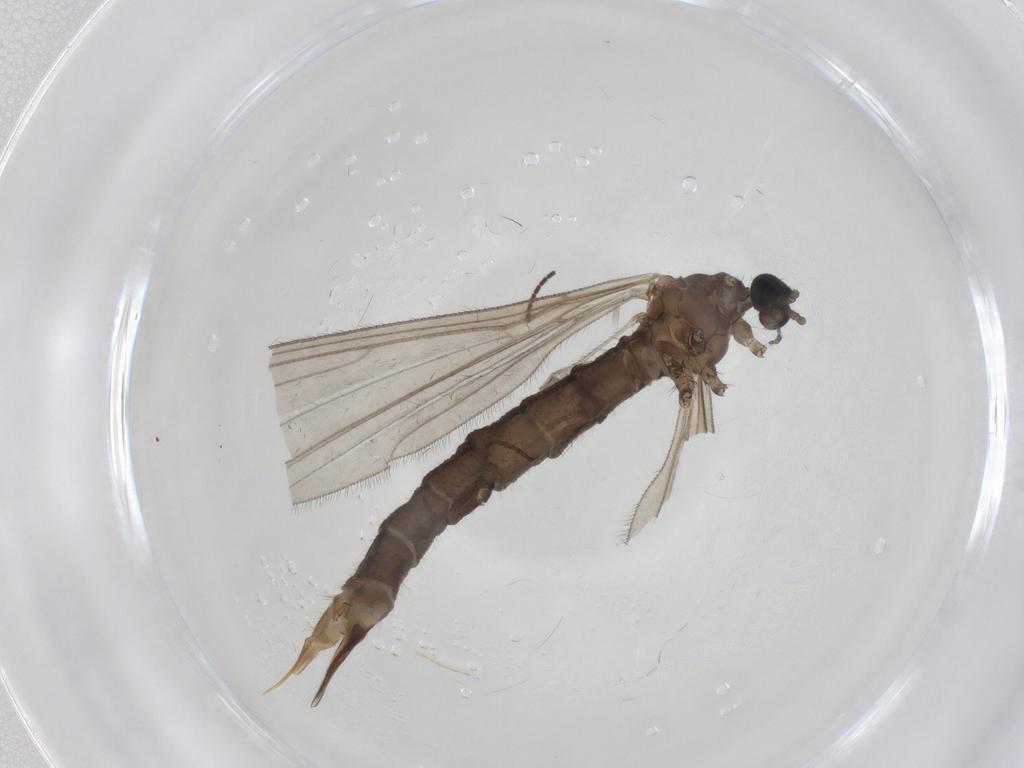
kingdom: Animalia
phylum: Arthropoda
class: Insecta
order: Diptera
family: Limoniidae
